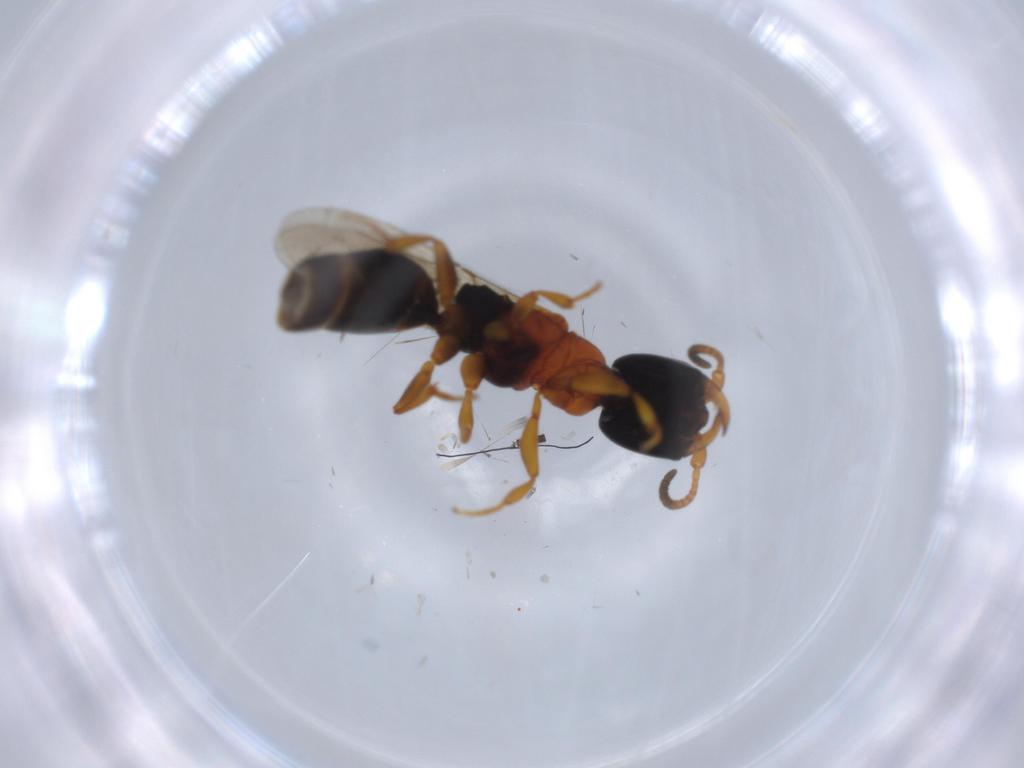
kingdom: Animalia
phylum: Arthropoda
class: Insecta
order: Hymenoptera
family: Bethylidae
